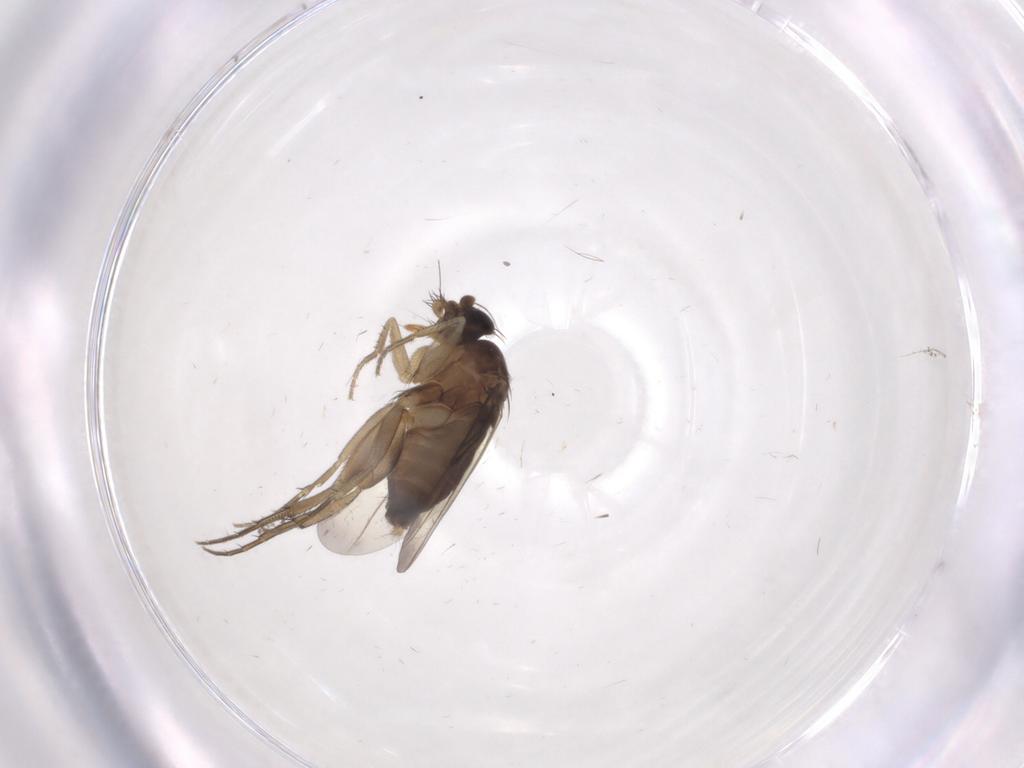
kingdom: Animalia
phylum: Arthropoda
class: Insecta
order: Diptera
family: Phoridae
